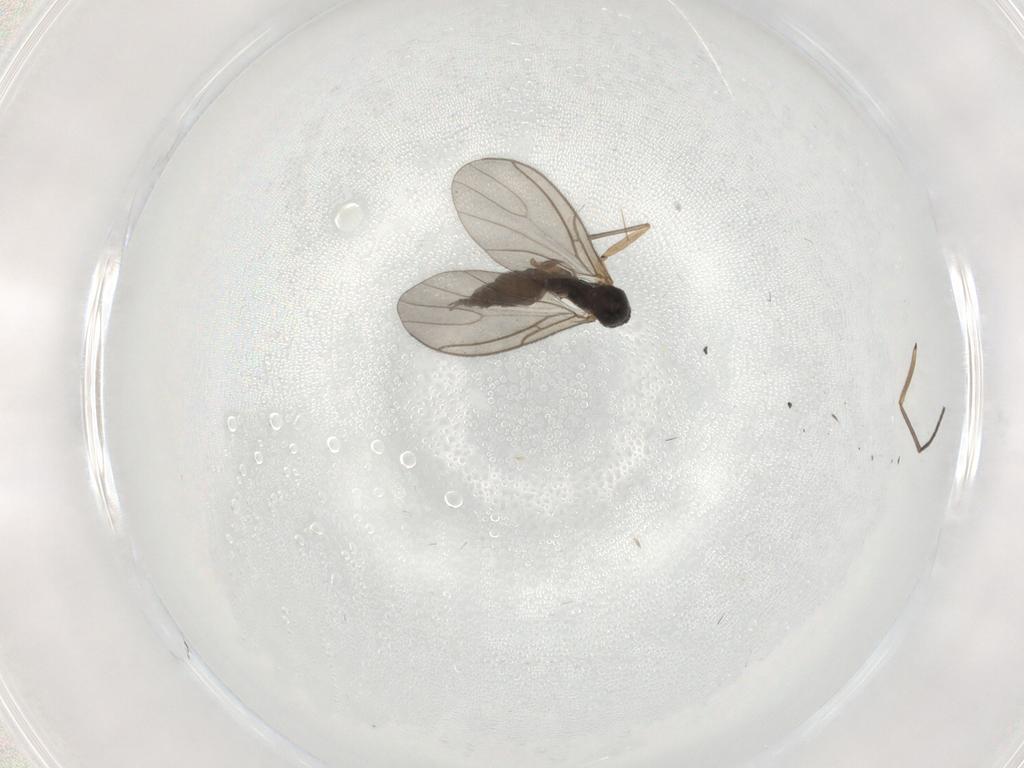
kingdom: Animalia
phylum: Arthropoda
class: Insecta
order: Diptera
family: Sciaridae
